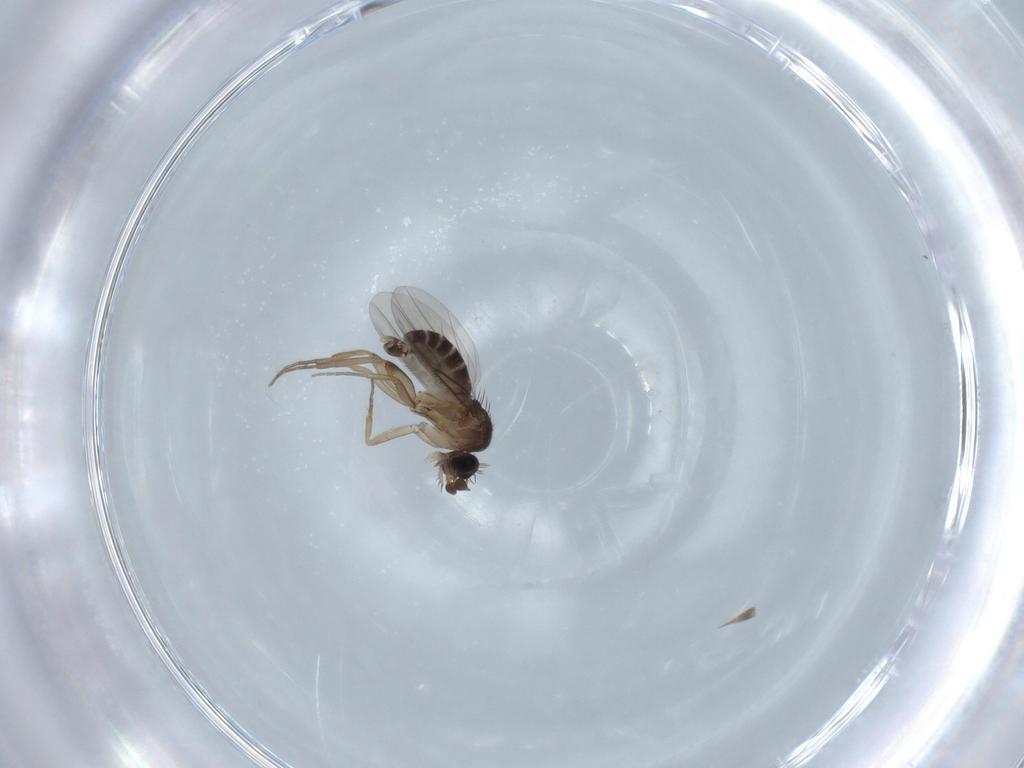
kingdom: Animalia
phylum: Arthropoda
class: Insecta
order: Diptera
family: Phoridae
